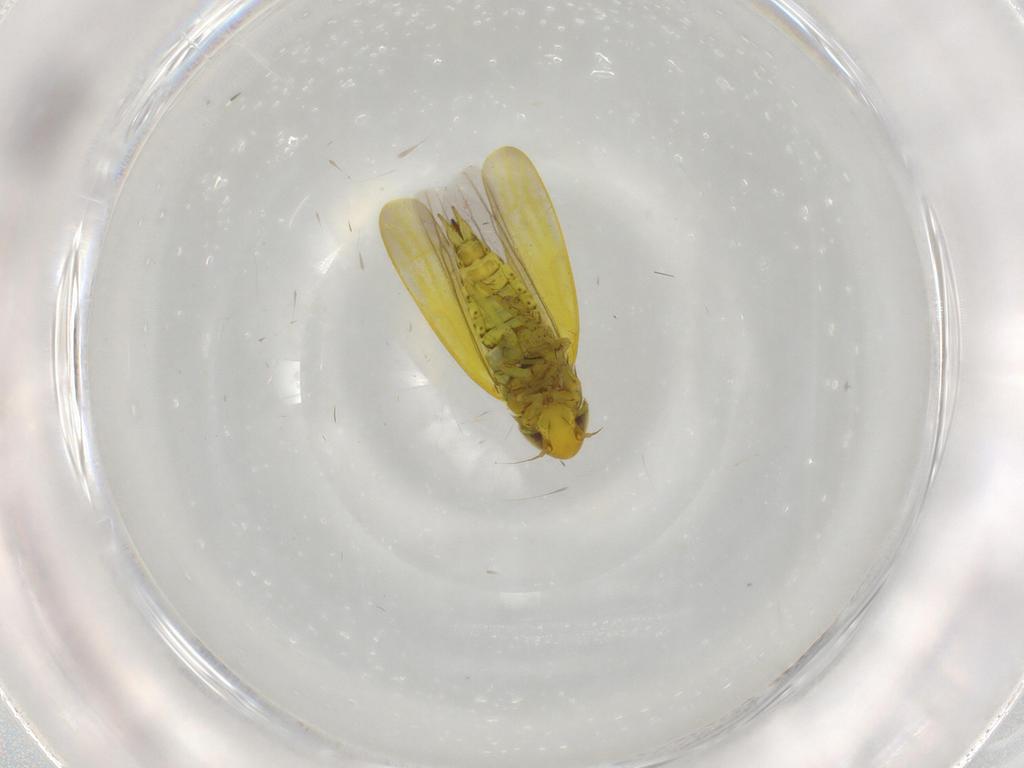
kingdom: Animalia
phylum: Arthropoda
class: Insecta
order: Hemiptera
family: Cicadellidae
